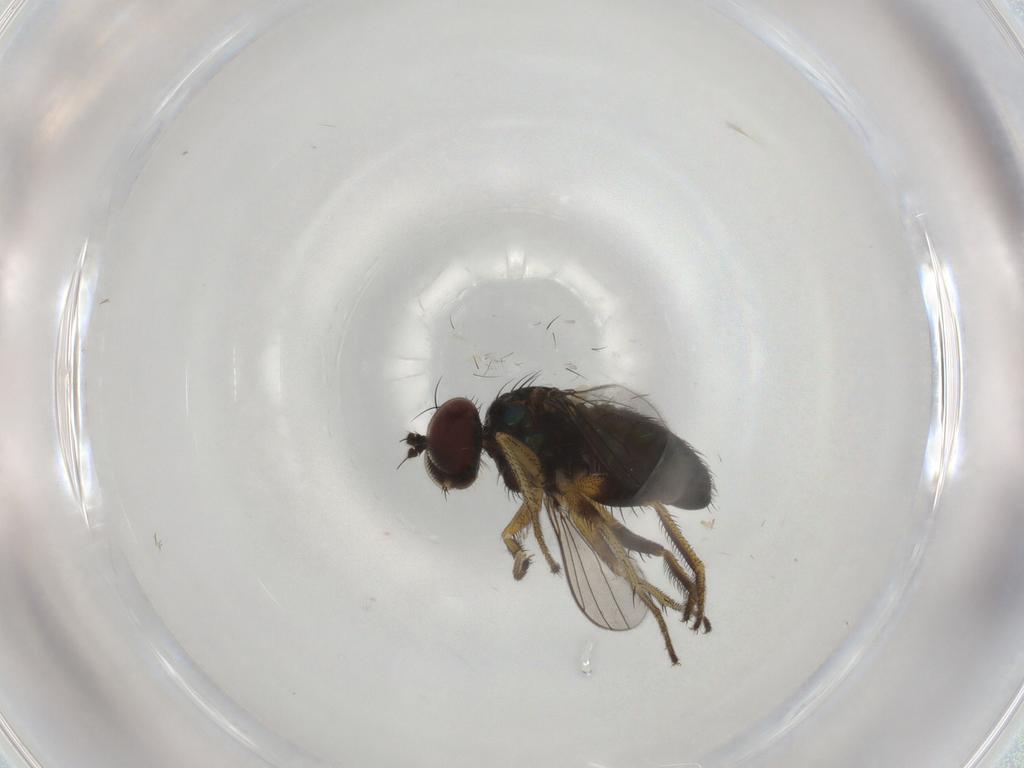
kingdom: Animalia
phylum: Arthropoda
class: Insecta
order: Diptera
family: Dolichopodidae
